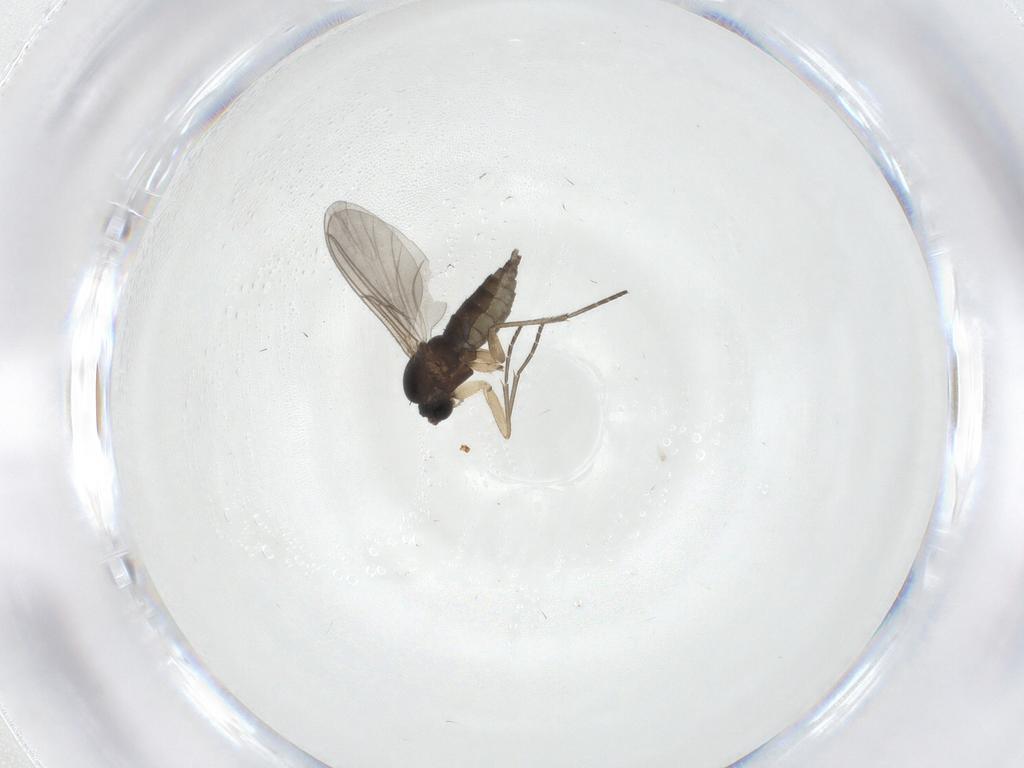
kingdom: Animalia
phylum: Arthropoda
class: Insecta
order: Diptera
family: Sciaridae
